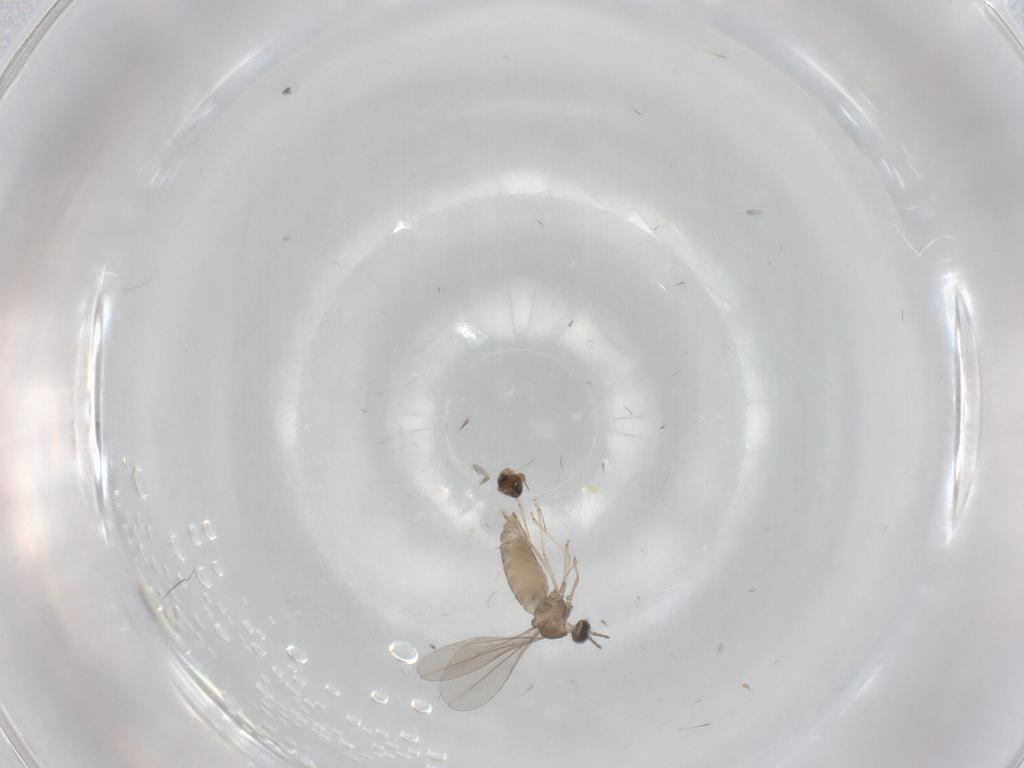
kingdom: Animalia
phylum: Arthropoda
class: Insecta
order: Diptera
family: Cecidomyiidae
